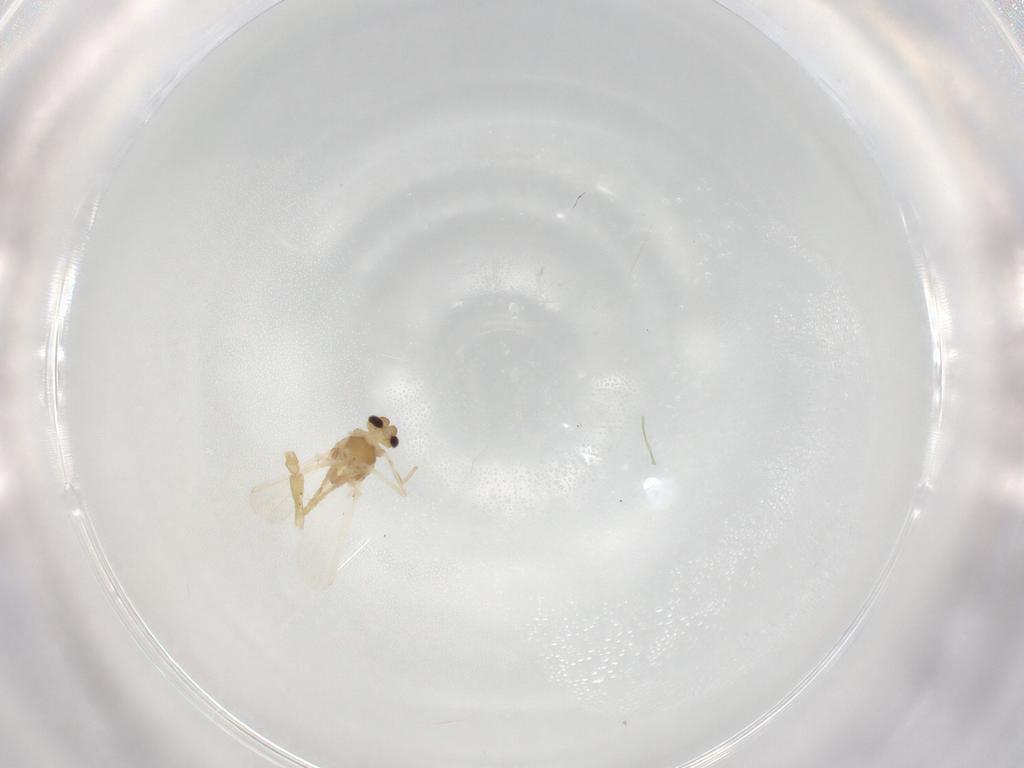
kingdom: Animalia
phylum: Arthropoda
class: Insecta
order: Diptera
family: Chironomidae
